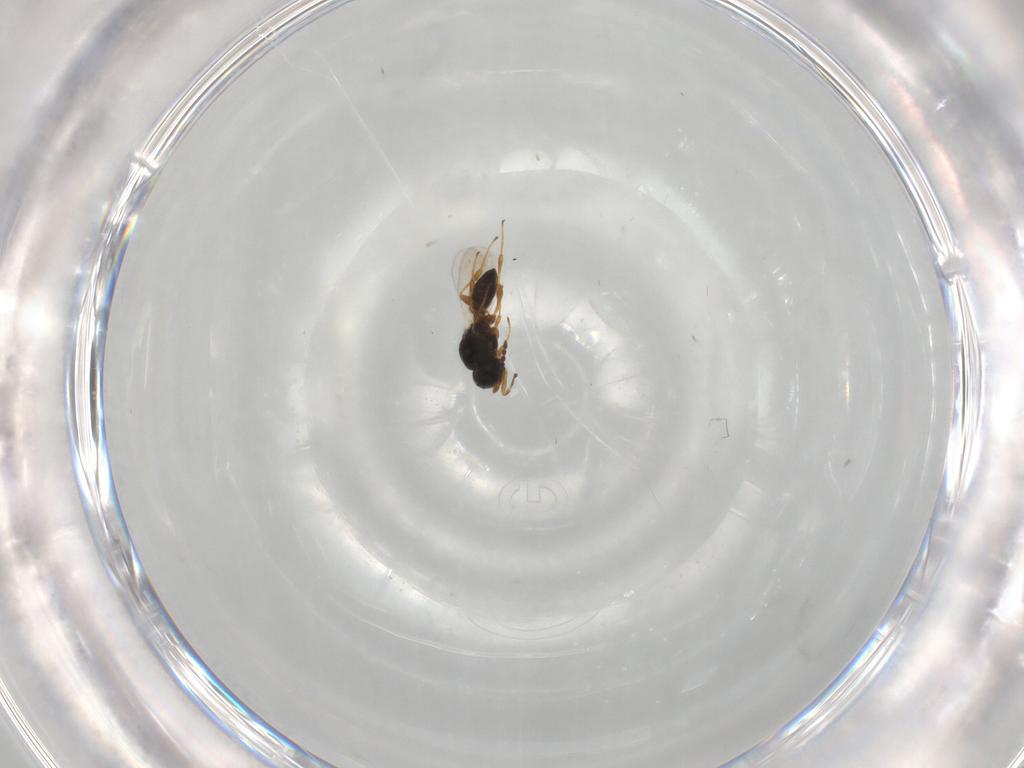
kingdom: Animalia
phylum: Arthropoda
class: Insecta
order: Hymenoptera
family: Platygastridae
